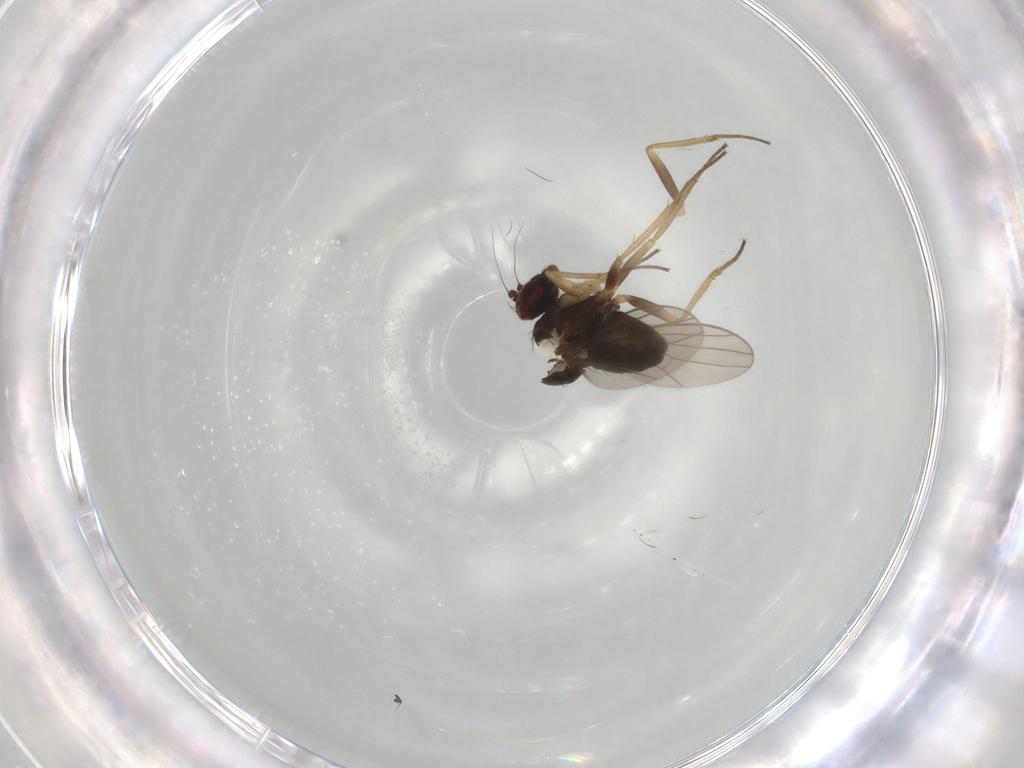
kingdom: Animalia
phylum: Arthropoda
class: Insecta
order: Diptera
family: Dolichopodidae
